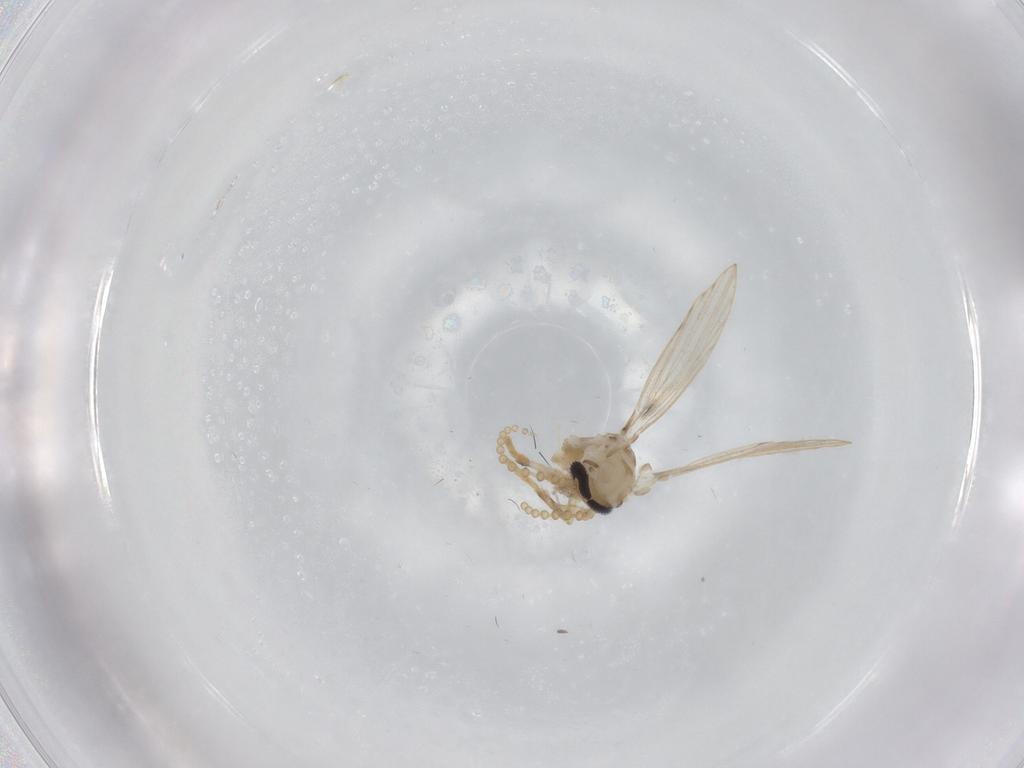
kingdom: Animalia
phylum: Arthropoda
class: Insecta
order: Diptera
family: Psychodidae
